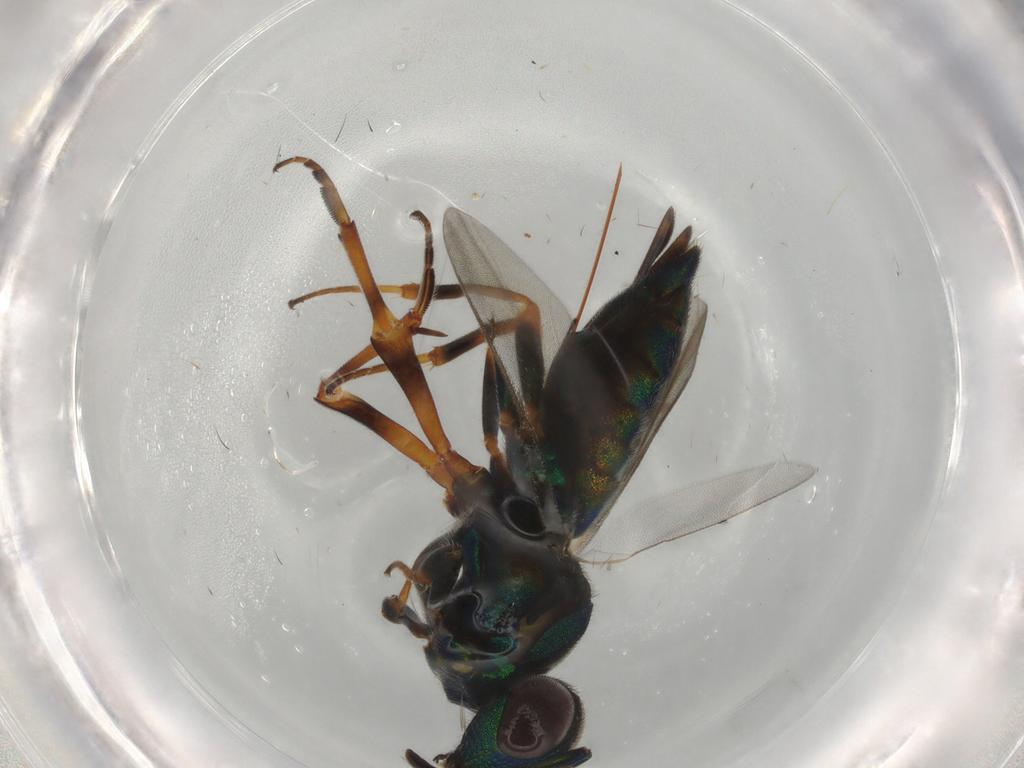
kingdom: Animalia
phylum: Arthropoda
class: Insecta
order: Hymenoptera
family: Eupelmidae
